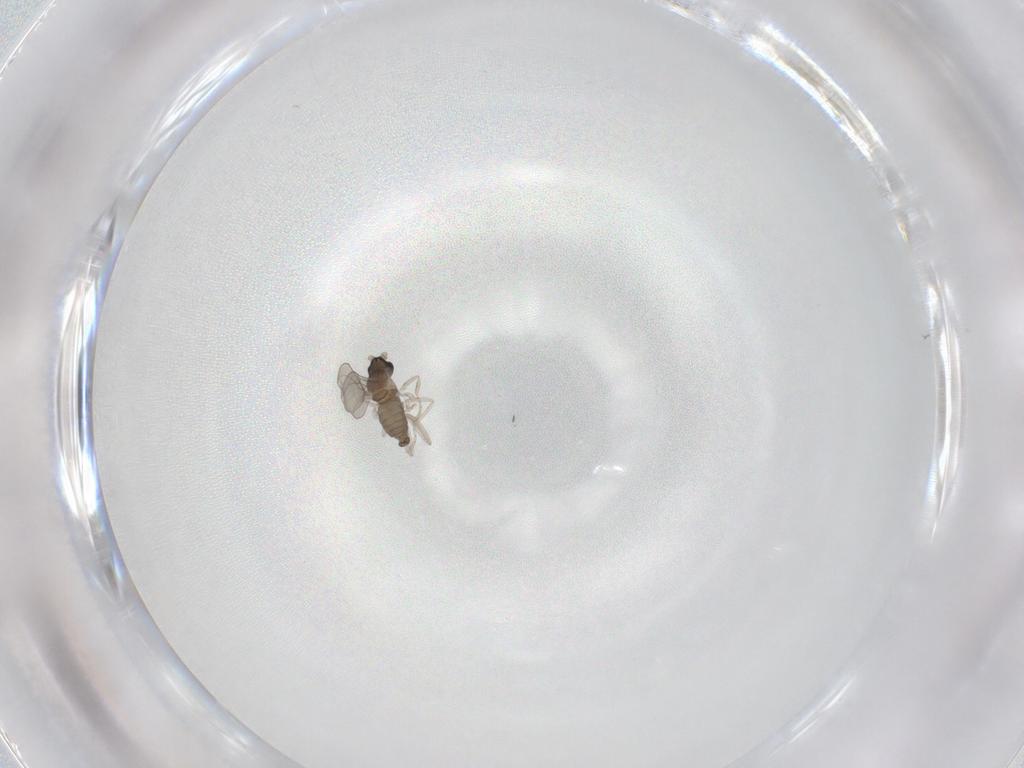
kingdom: Animalia
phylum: Arthropoda
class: Insecta
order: Diptera
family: Cecidomyiidae
